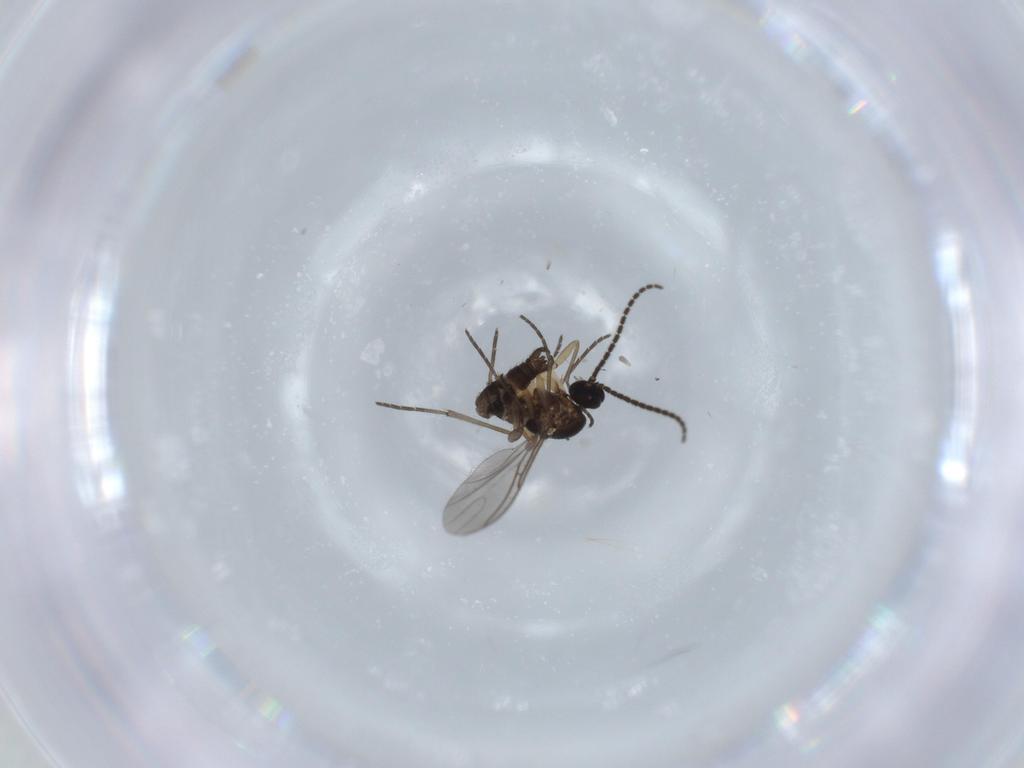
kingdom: Animalia
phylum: Arthropoda
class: Insecta
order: Diptera
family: Sciaridae
